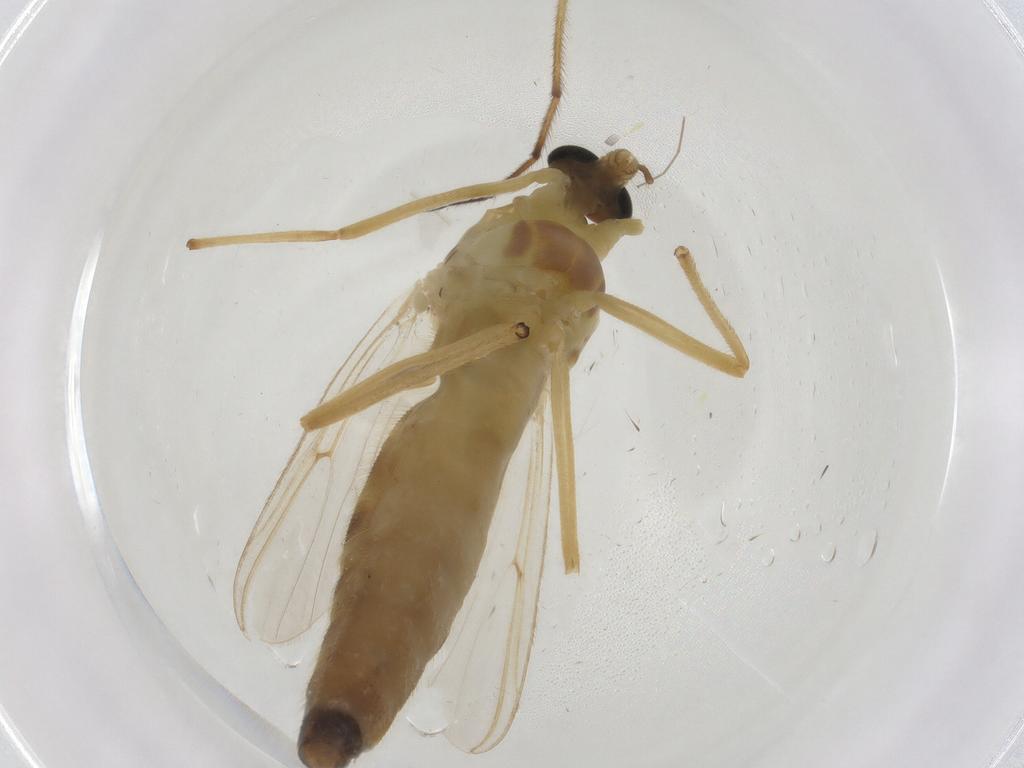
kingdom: Animalia
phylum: Arthropoda
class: Insecta
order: Diptera
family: Chironomidae
